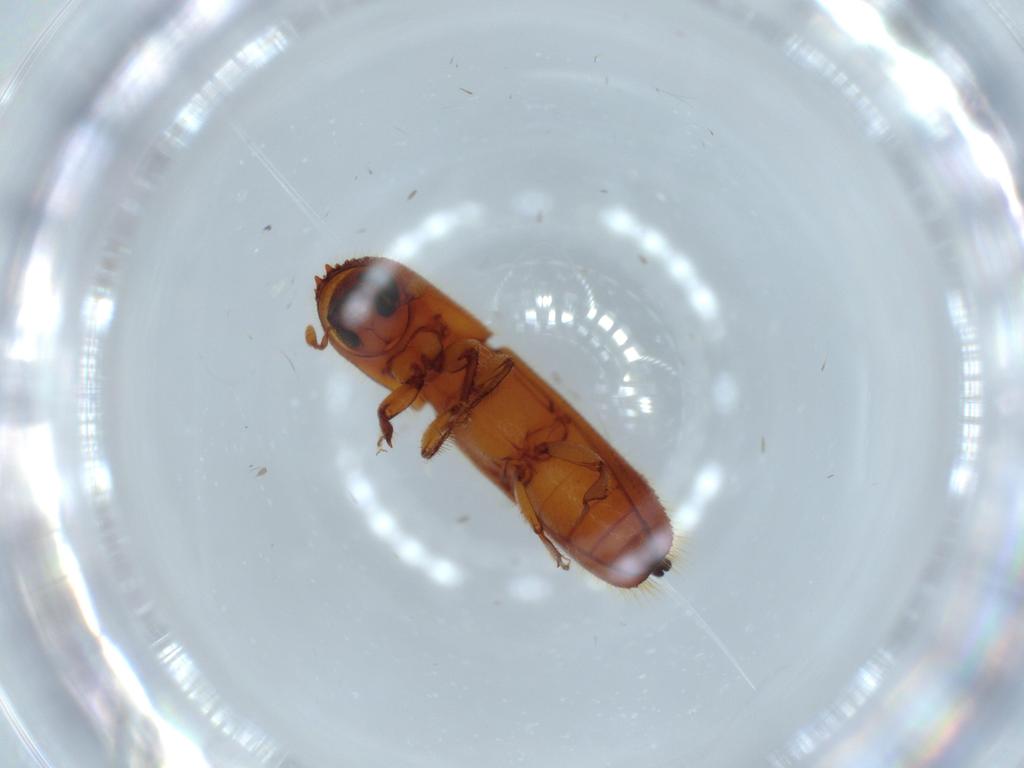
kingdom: Animalia
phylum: Arthropoda
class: Insecta
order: Coleoptera
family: Curculionidae
